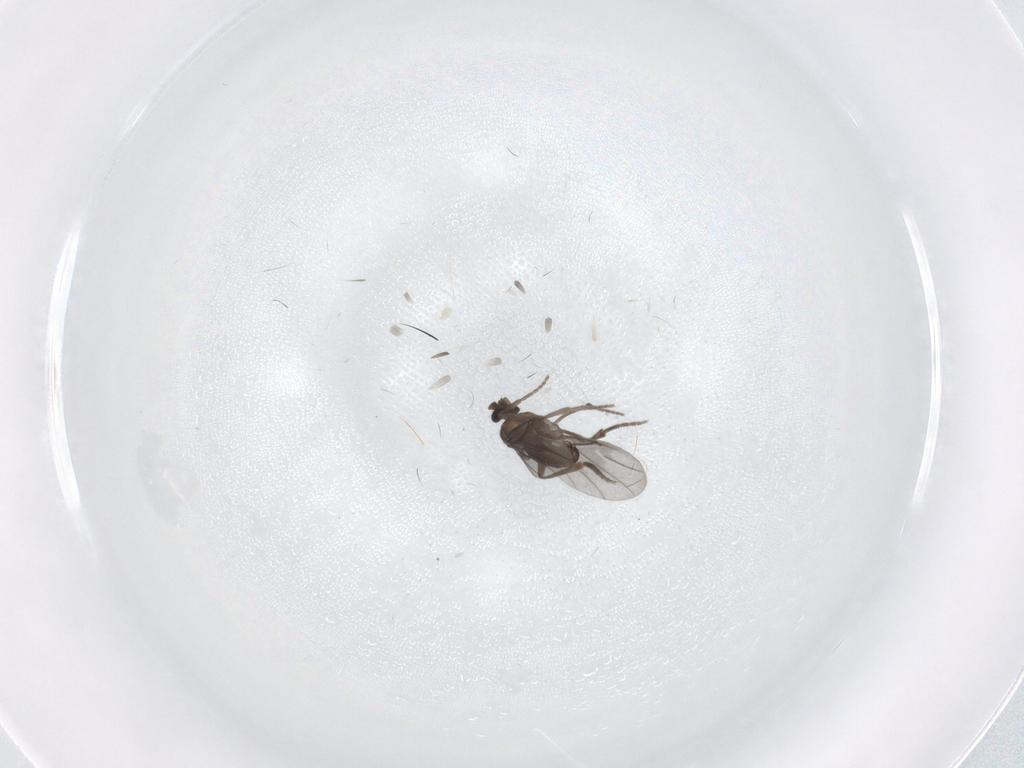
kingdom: Animalia
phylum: Arthropoda
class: Insecta
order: Diptera
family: Phoridae
